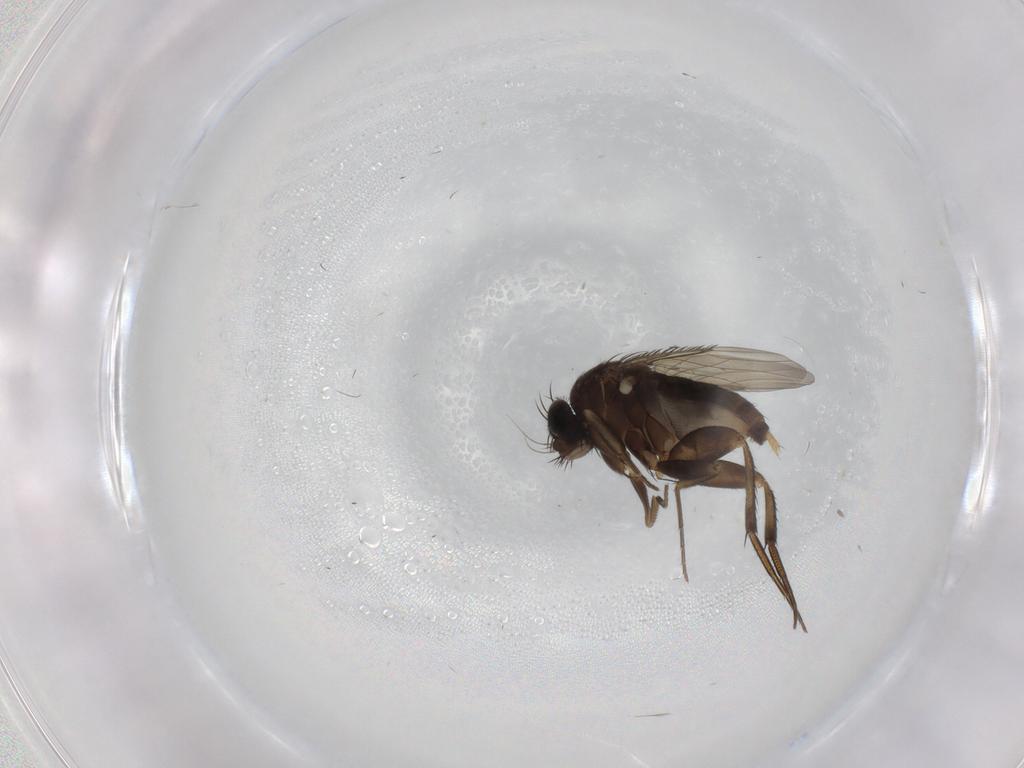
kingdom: Animalia
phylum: Arthropoda
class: Insecta
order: Diptera
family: Phoridae
